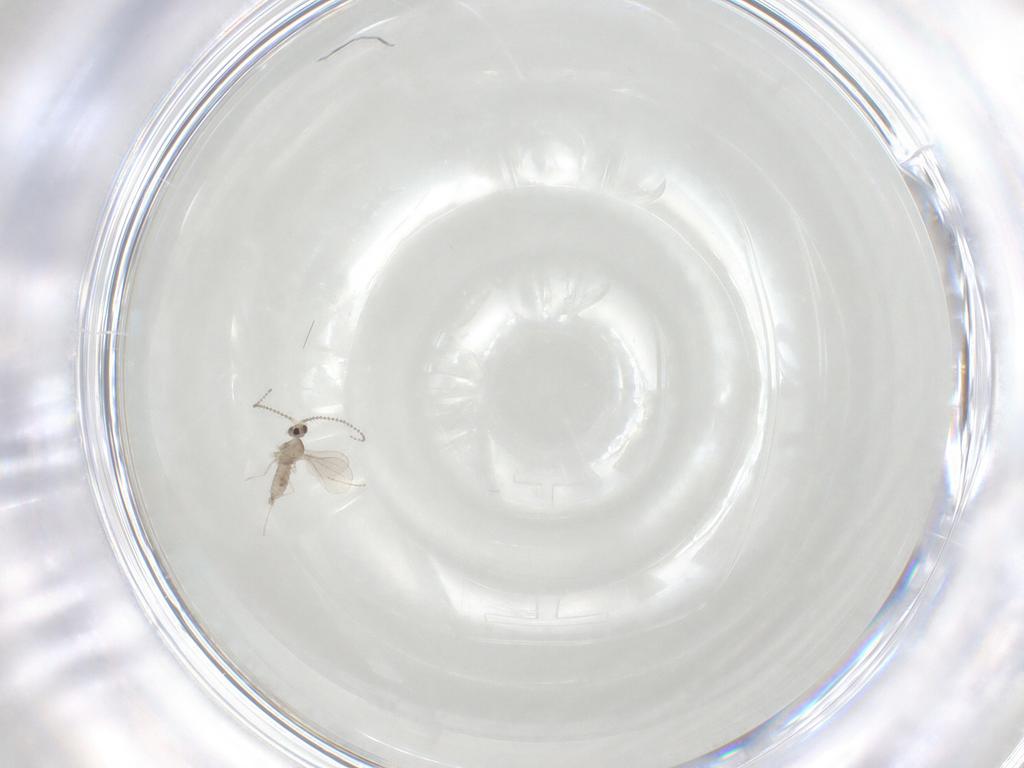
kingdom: Animalia
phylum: Arthropoda
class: Insecta
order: Diptera
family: Cecidomyiidae
